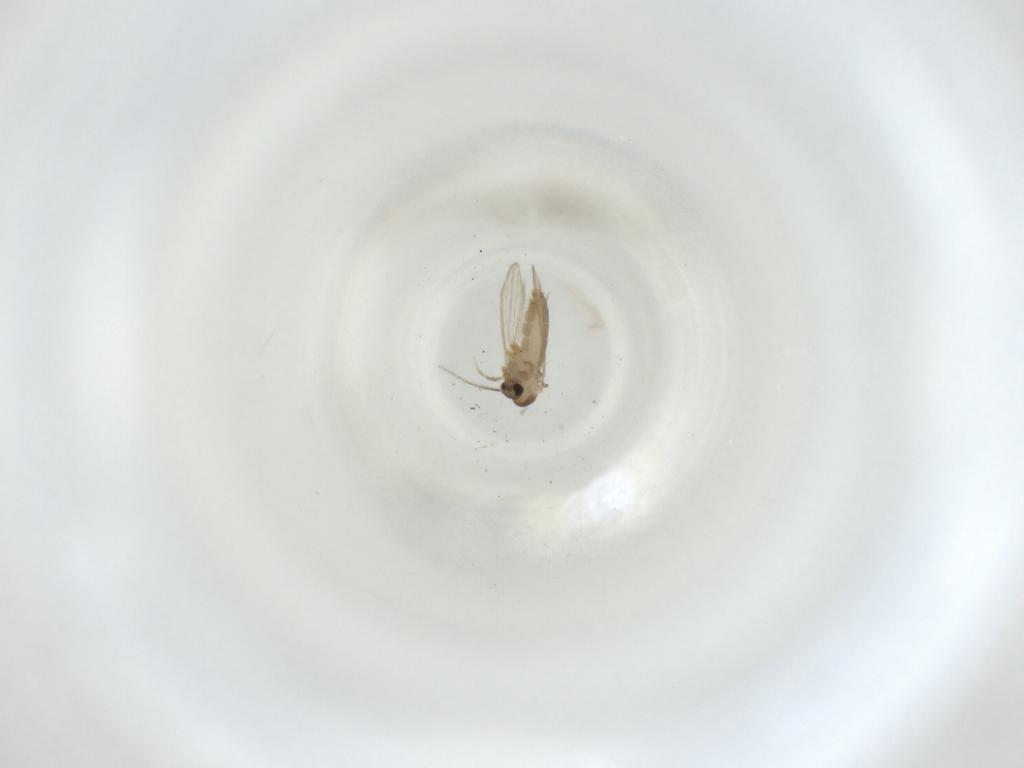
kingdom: Animalia
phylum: Arthropoda
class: Insecta
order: Diptera
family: Psychodidae
